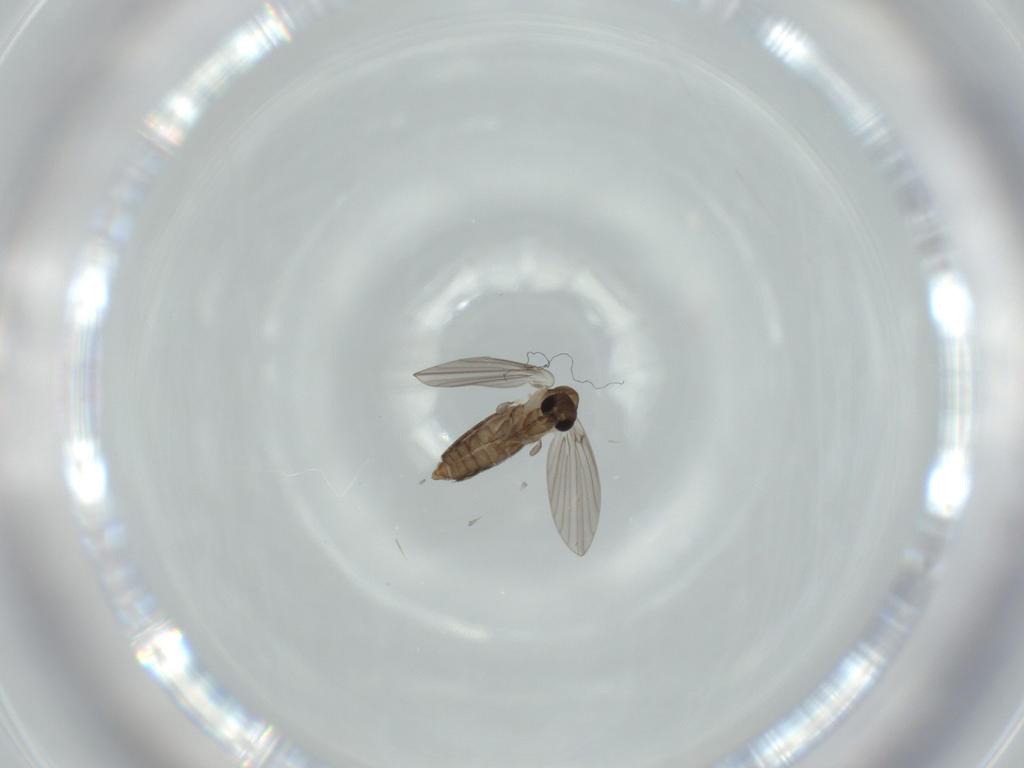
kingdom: Animalia
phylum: Arthropoda
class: Insecta
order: Diptera
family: Psychodidae
